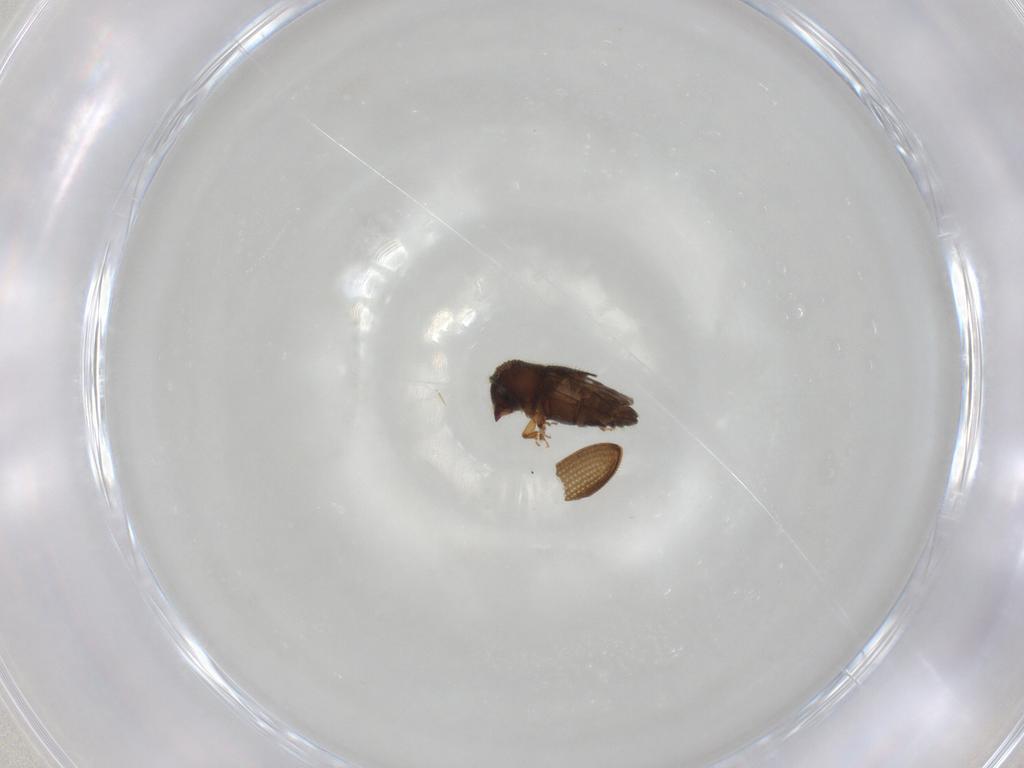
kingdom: Animalia
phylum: Arthropoda
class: Insecta
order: Coleoptera
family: Curculionidae
